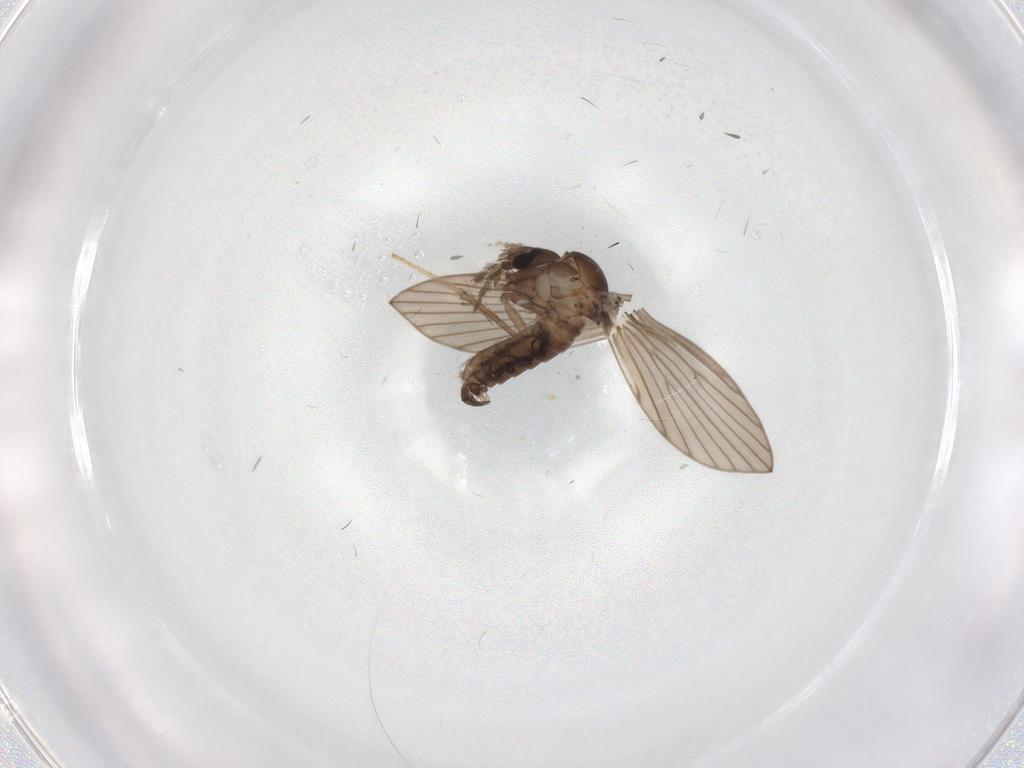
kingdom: Animalia
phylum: Arthropoda
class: Insecta
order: Diptera
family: Psychodidae
